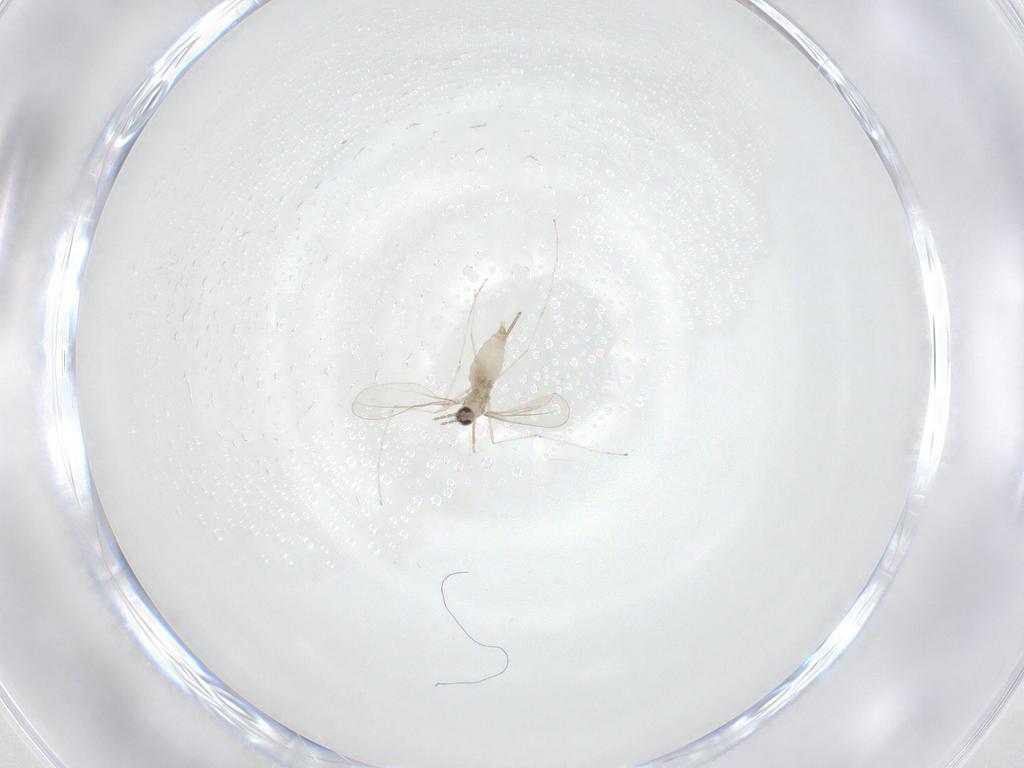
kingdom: Animalia
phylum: Arthropoda
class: Insecta
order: Diptera
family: Cecidomyiidae
